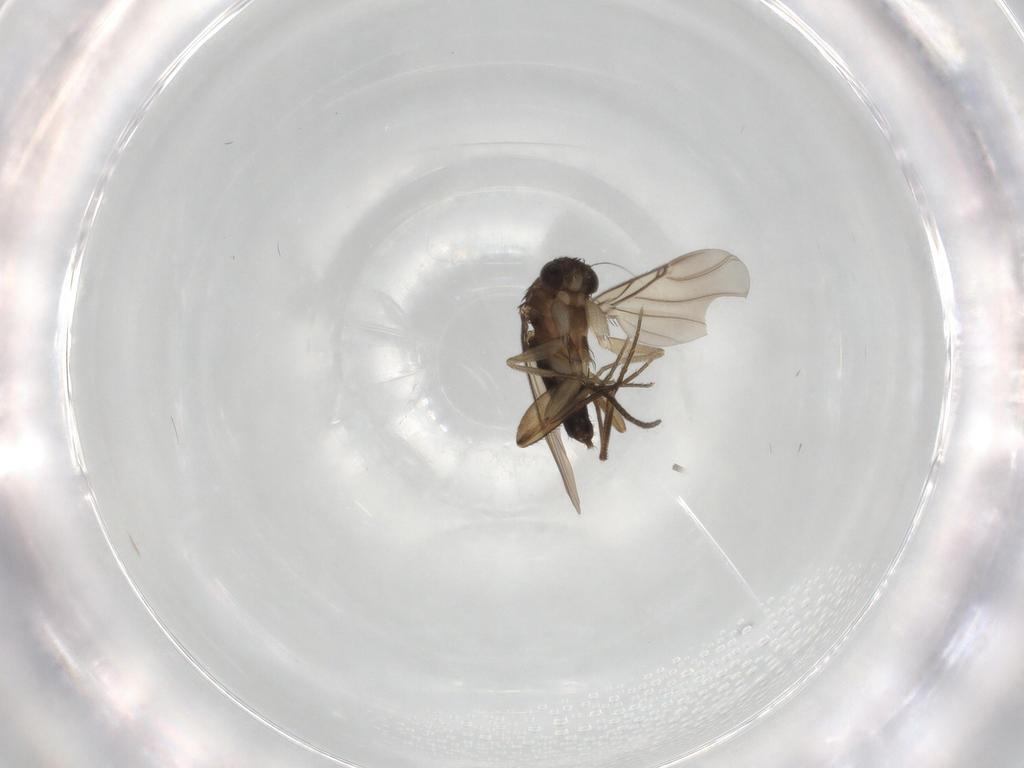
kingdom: Animalia
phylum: Arthropoda
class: Insecta
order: Diptera
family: Phoridae
